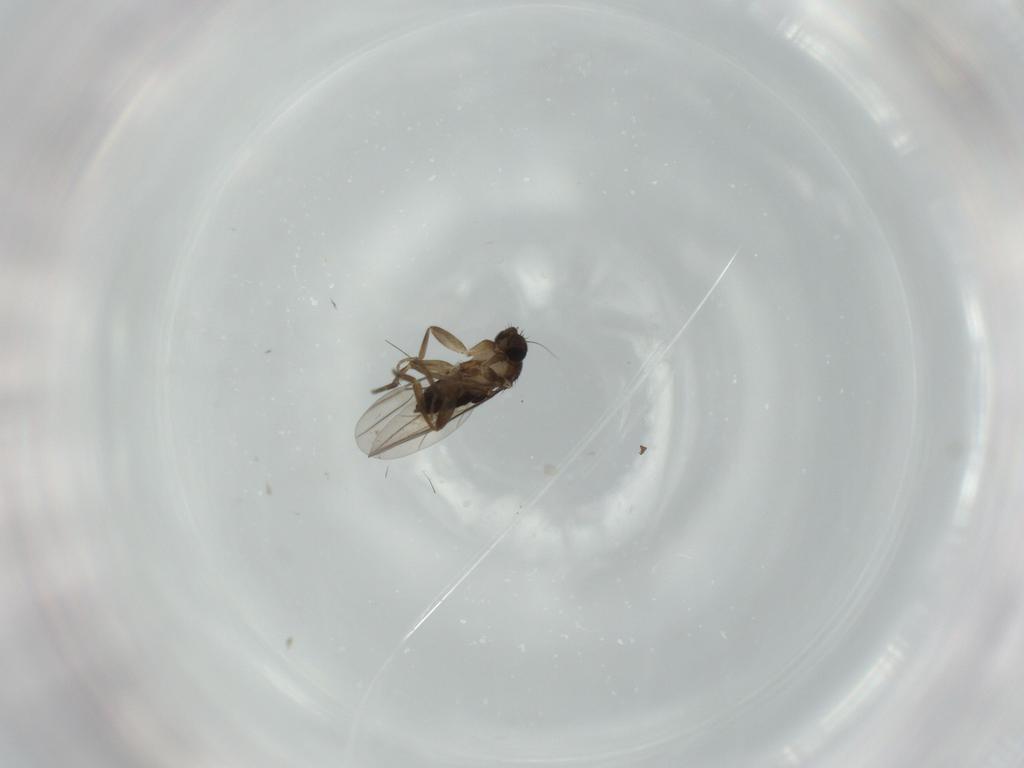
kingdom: Animalia
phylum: Arthropoda
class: Insecta
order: Diptera
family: Phoridae
